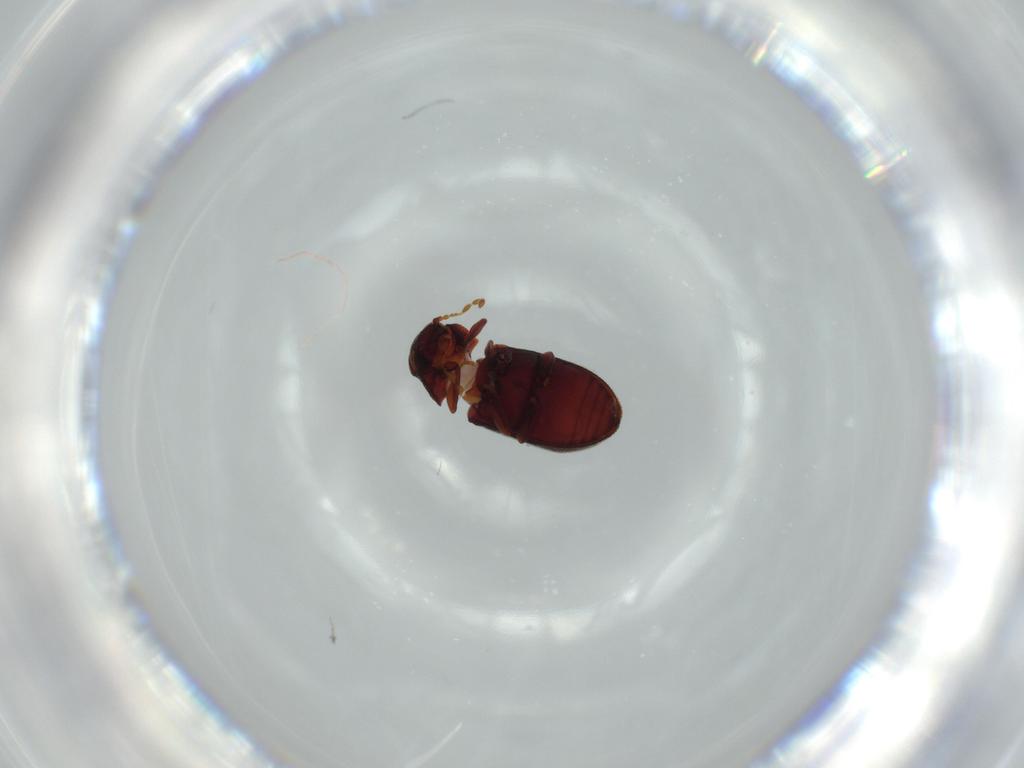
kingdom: Animalia
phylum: Arthropoda
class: Insecta
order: Coleoptera
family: Anobiidae
